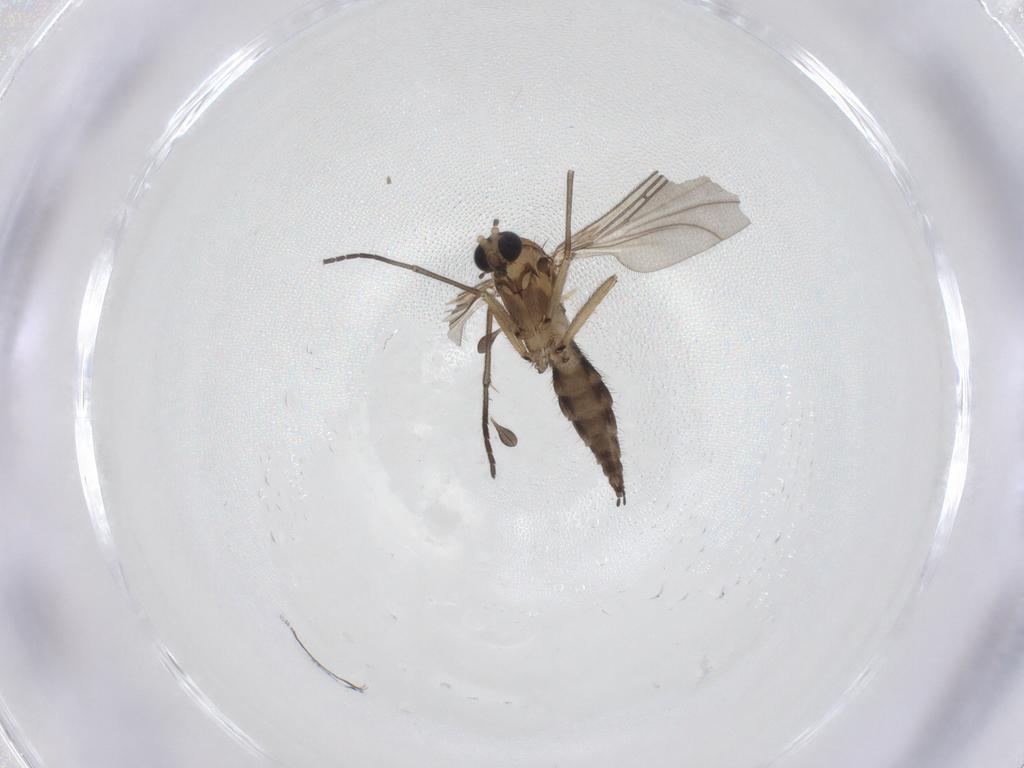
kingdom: Animalia
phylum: Arthropoda
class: Insecta
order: Diptera
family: Sciaridae
